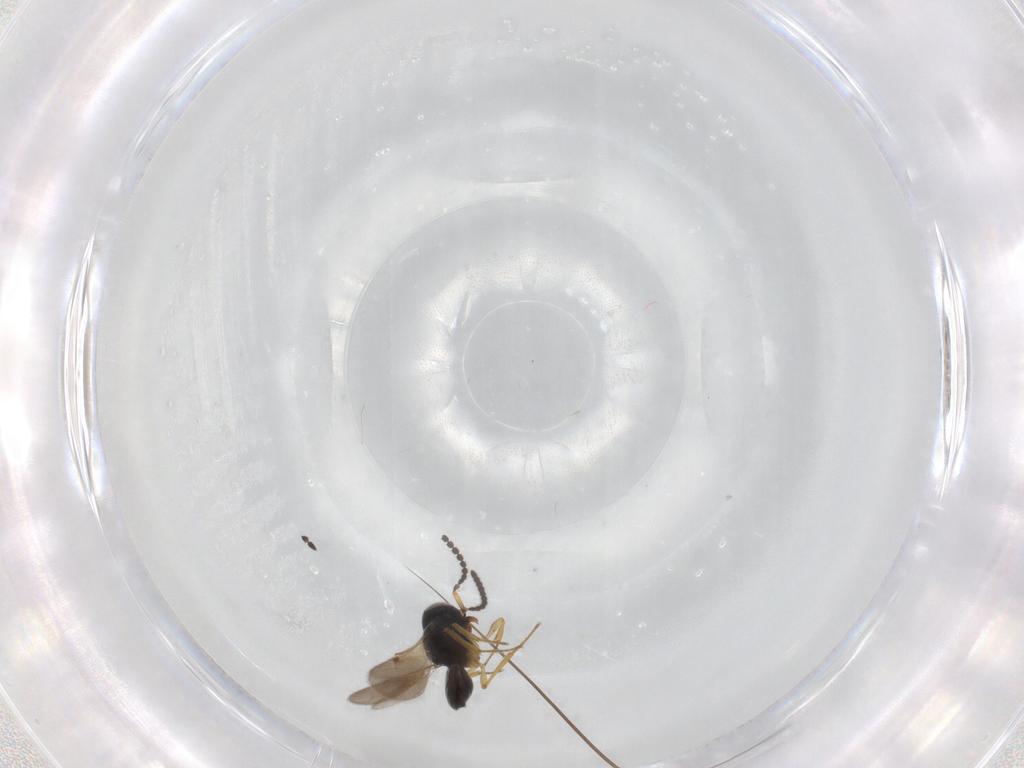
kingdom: Animalia
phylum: Arthropoda
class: Insecta
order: Hymenoptera
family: Scelionidae
